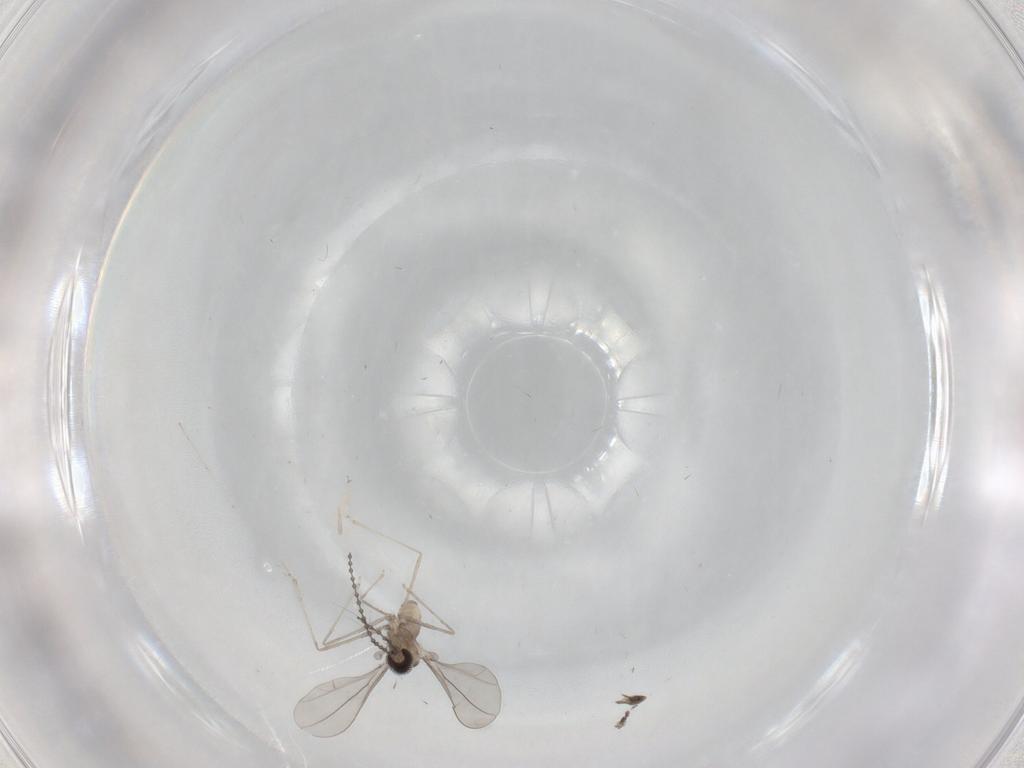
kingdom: Animalia
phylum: Arthropoda
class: Insecta
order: Diptera
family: Cecidomyiidae
